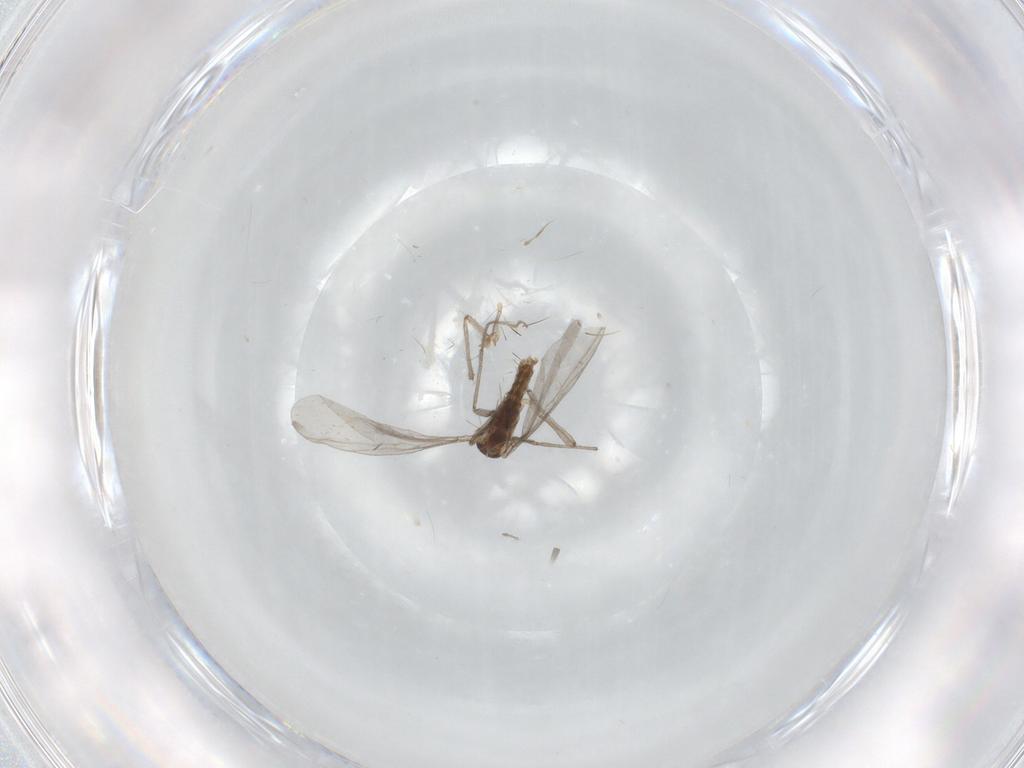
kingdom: Animalia
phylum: Arthropoda
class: Insecta
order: Diptera
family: Chironomidae
